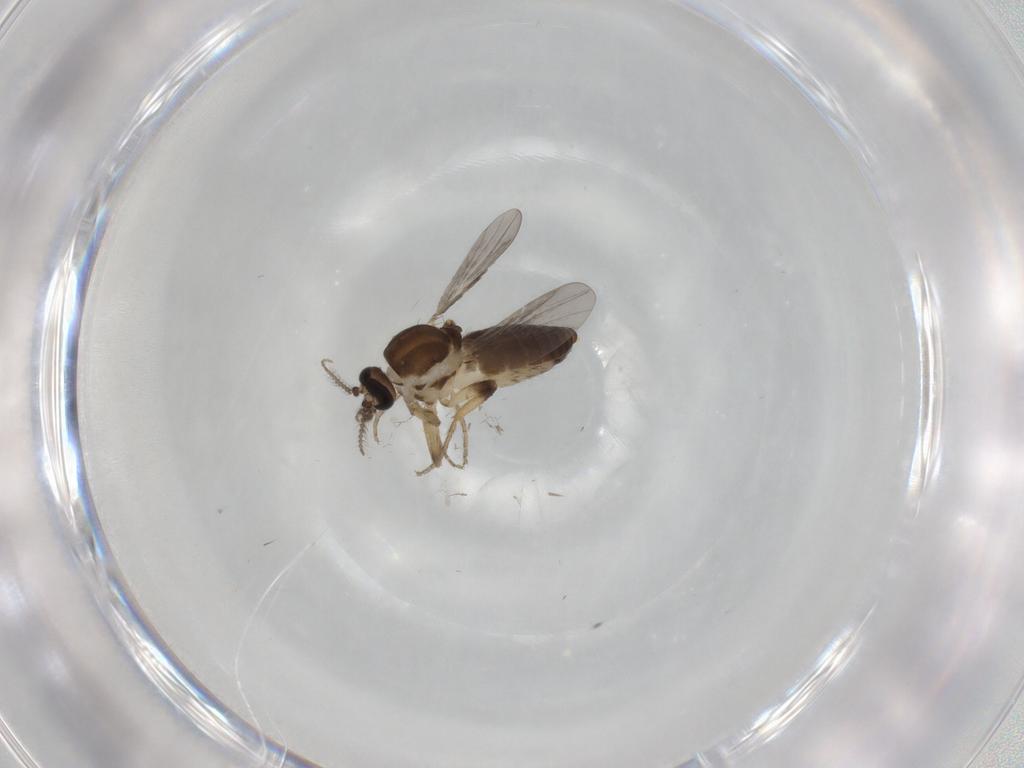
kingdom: Animalia
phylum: Arthropoda
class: Insecta
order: Diptera
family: Ceratopogonidae
